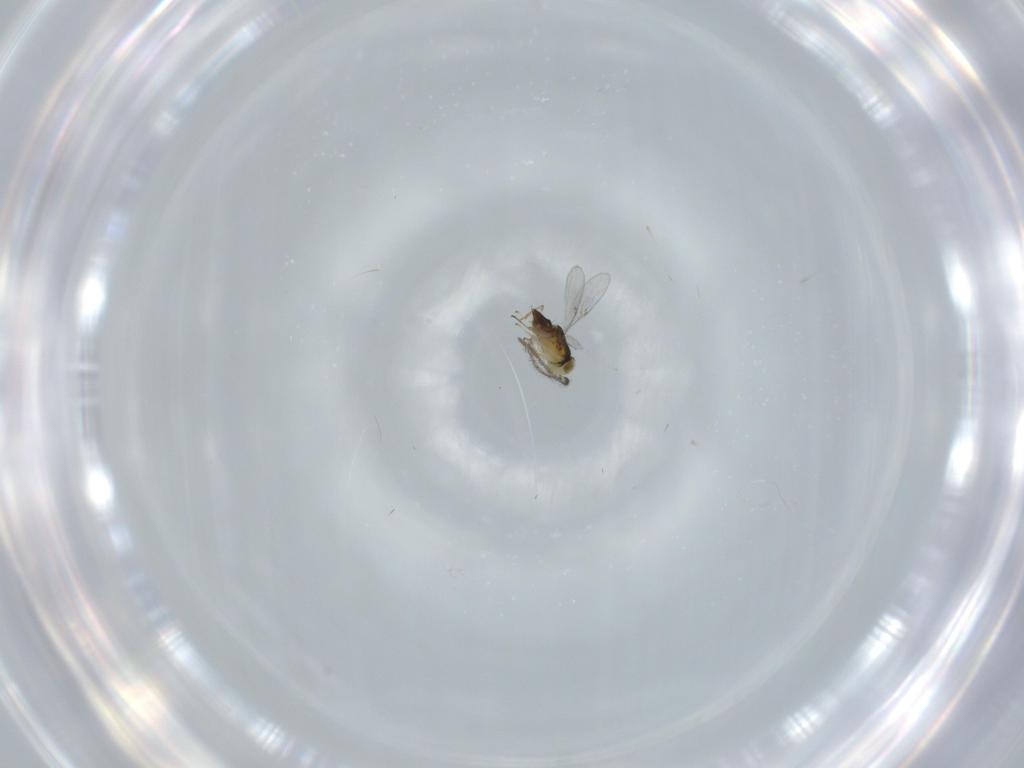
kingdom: Animalia
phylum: Arthropoda
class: Insecta
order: Hymenoptera
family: Encyrtidae
